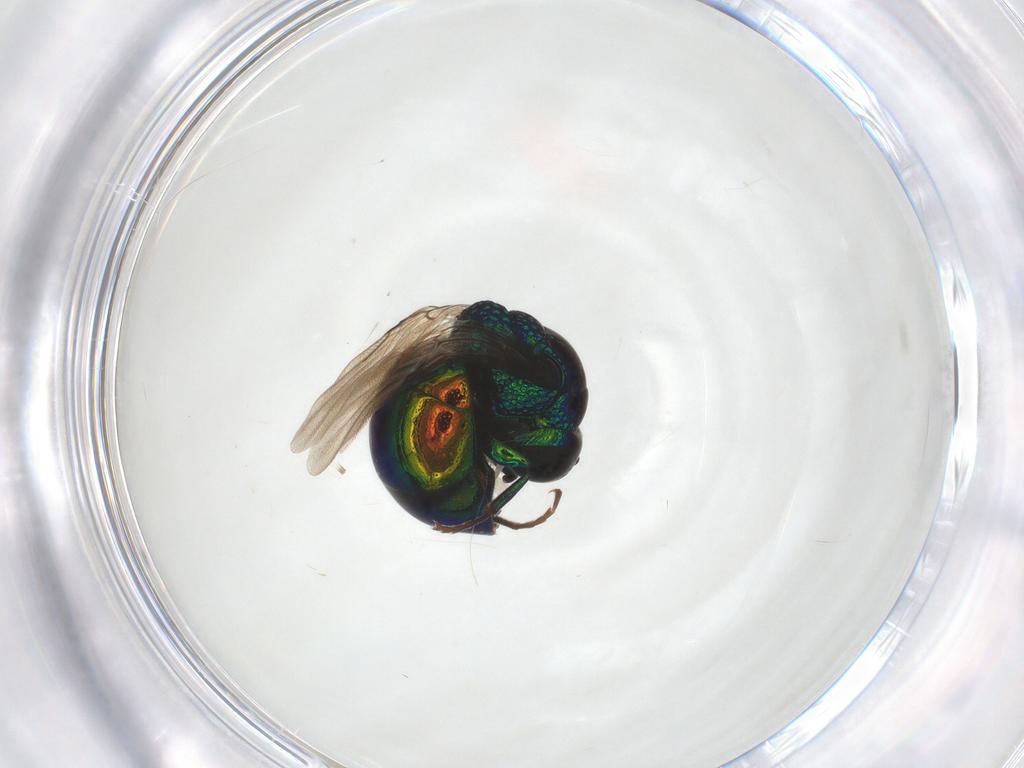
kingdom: Animalia
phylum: Arthropoda
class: Insecta
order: Hymenoptera
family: Chrysididae
